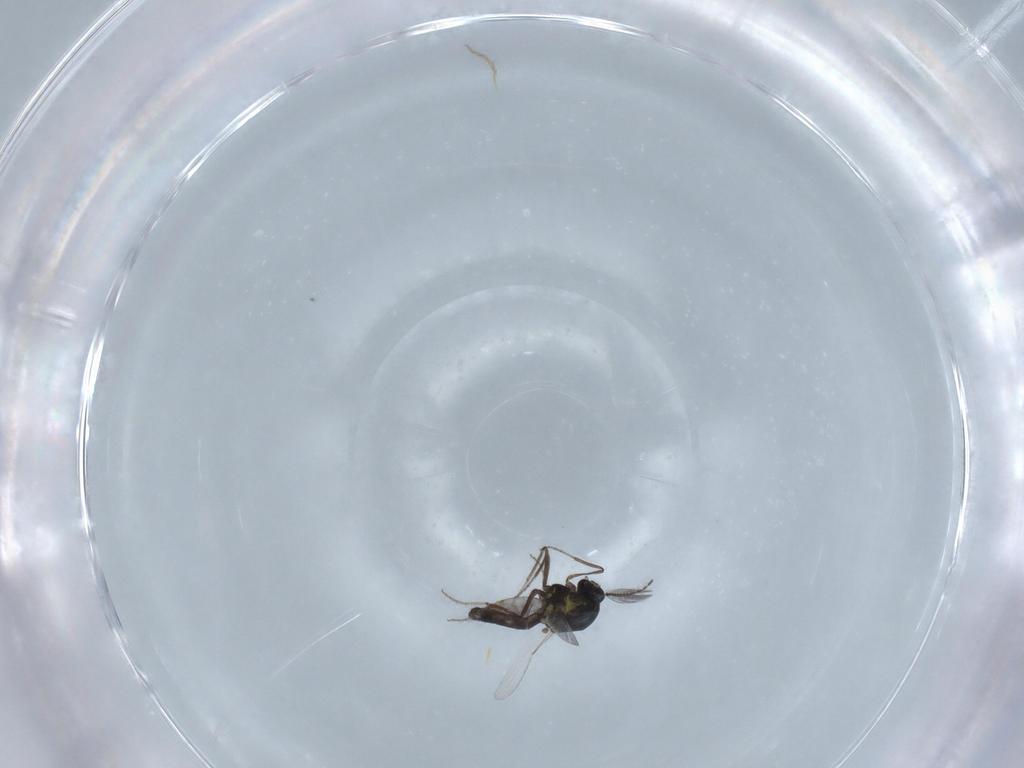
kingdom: Animalia
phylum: Arthropoda
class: Insecta
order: Diptera
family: Ceratopogonidae
